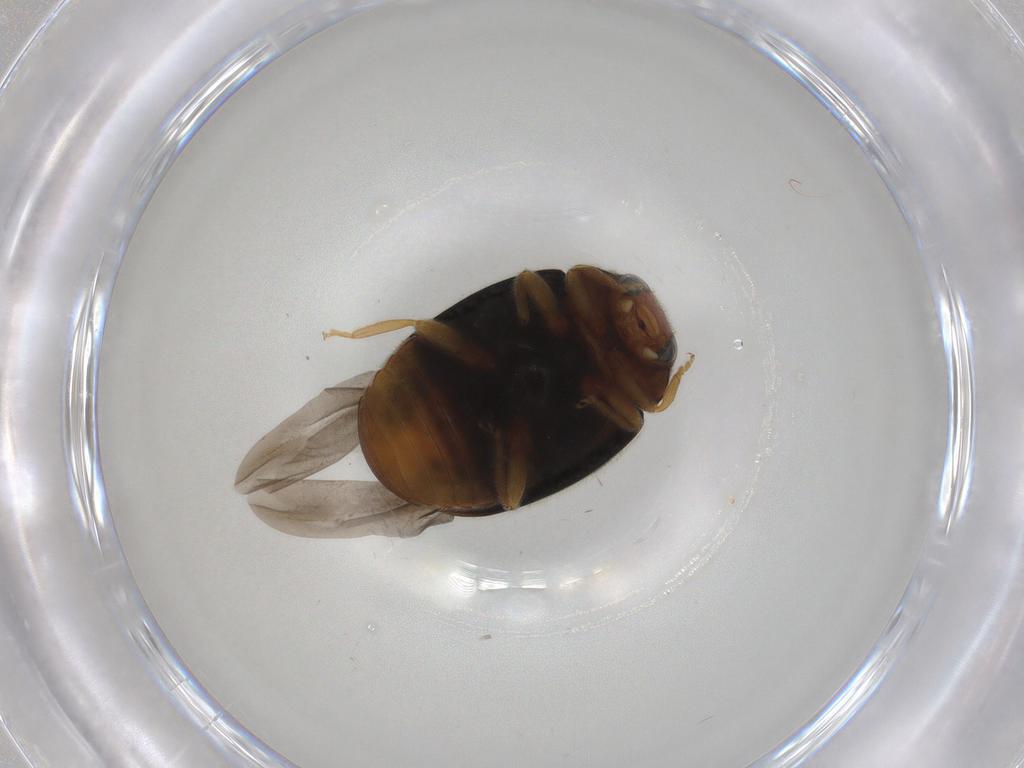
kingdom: Animalia
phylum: Arthropoda
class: Insecta
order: Coleoptera
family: Coccinellidae
